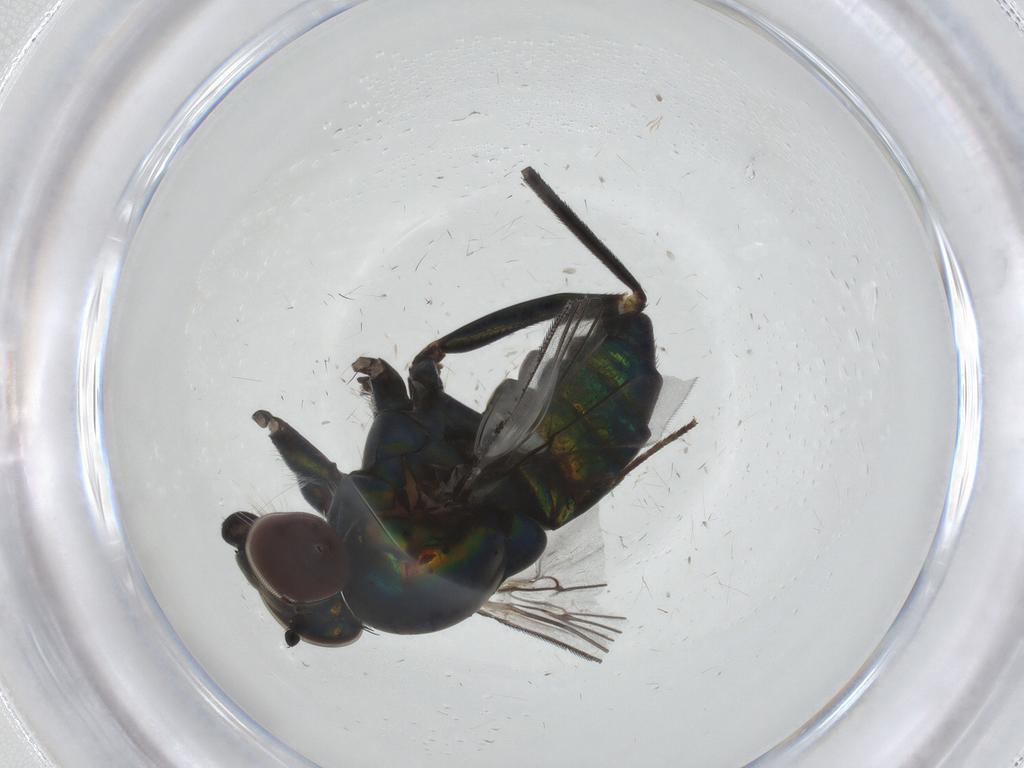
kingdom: Animalia
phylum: Arthropoda
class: Insecta
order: Diptera
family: Dolichopodidae
